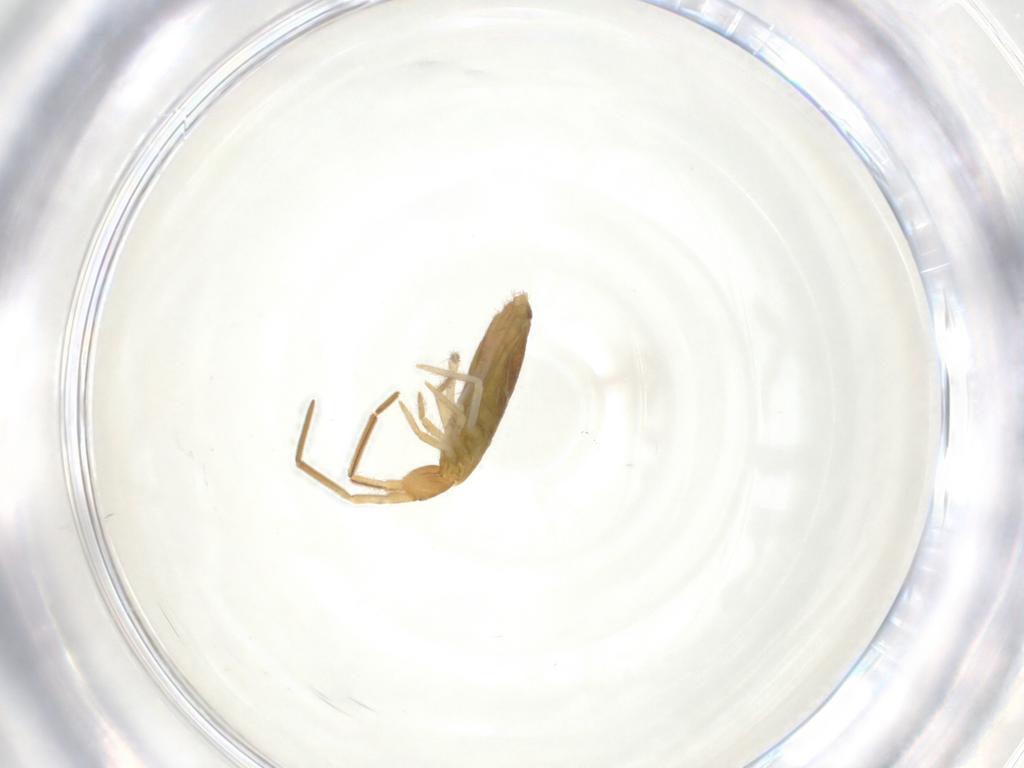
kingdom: Animalia
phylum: Arthropoda
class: Collembola
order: Entomobryomorpha
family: Entomobryidae
